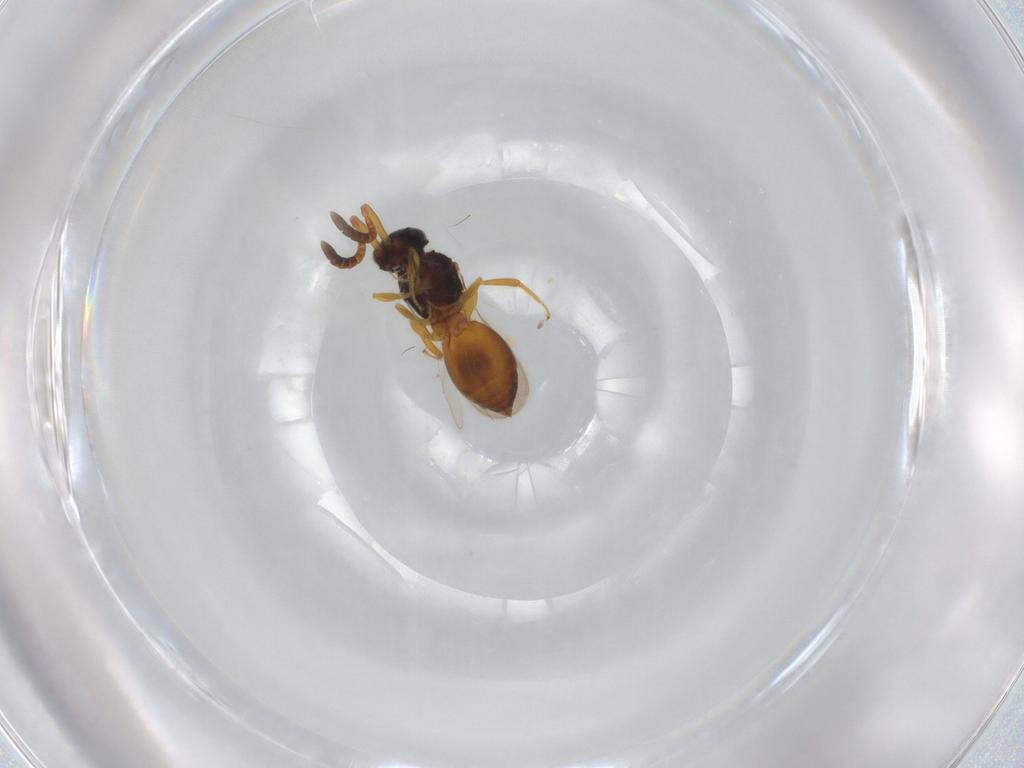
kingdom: Animalia
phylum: Arthropoda
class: Insecta
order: Hymenoptera
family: Megaspilidae
